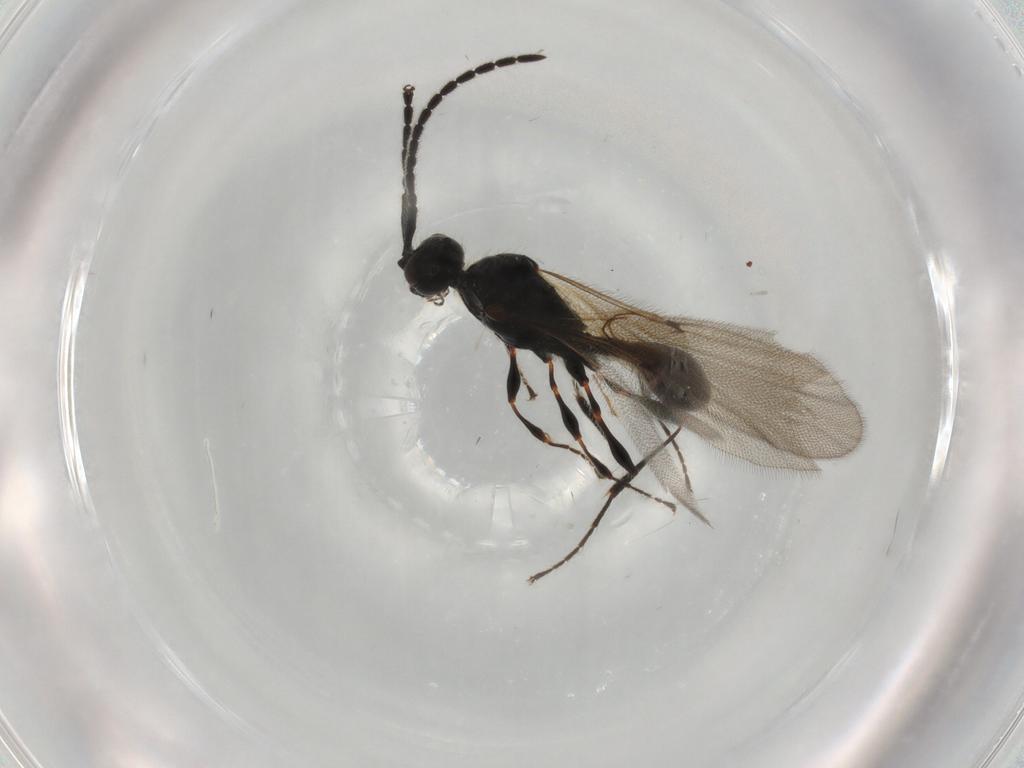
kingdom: Animalia
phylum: Arthropoda
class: Insecta
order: Hymenoptera
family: Diapriidae
